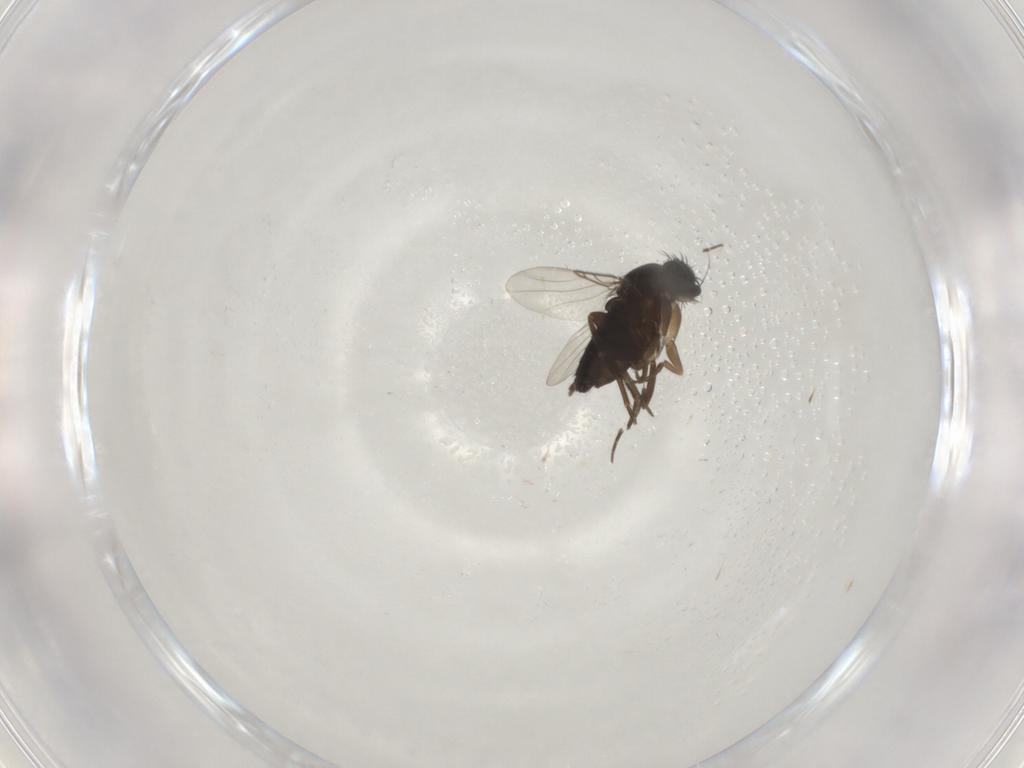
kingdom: Animalia
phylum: Arthropoda
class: Insecta
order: Diptera
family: Phoridae
